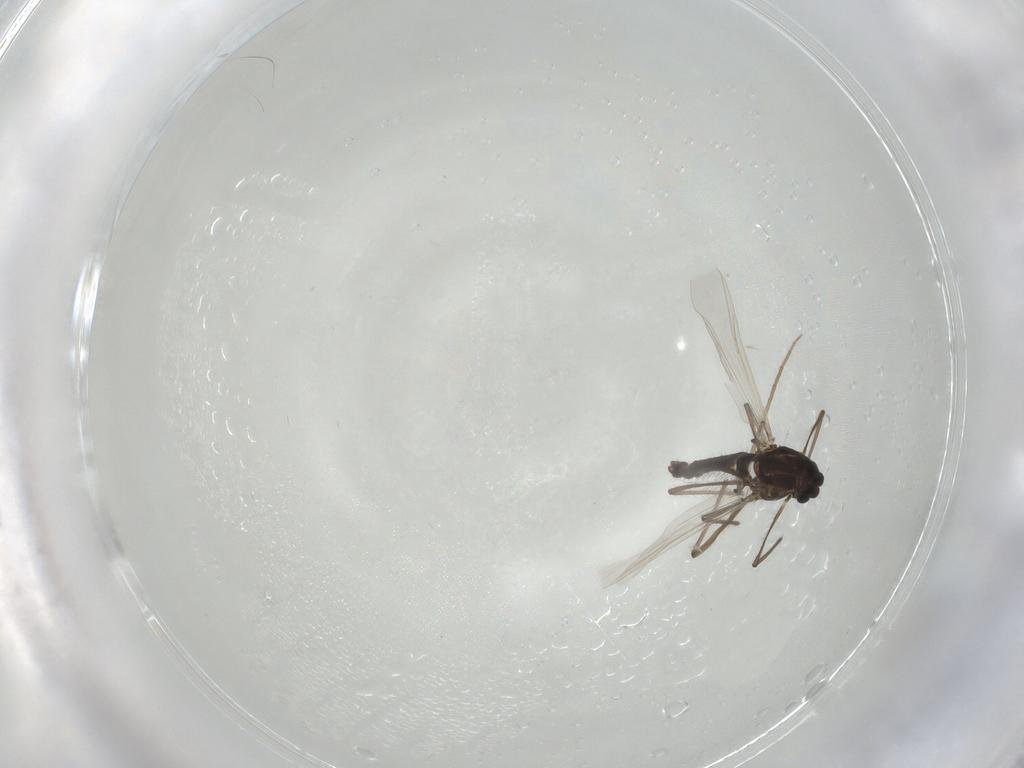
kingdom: Animalia
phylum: Arthropoda
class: Insecta
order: Diptera
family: Chironomidae
